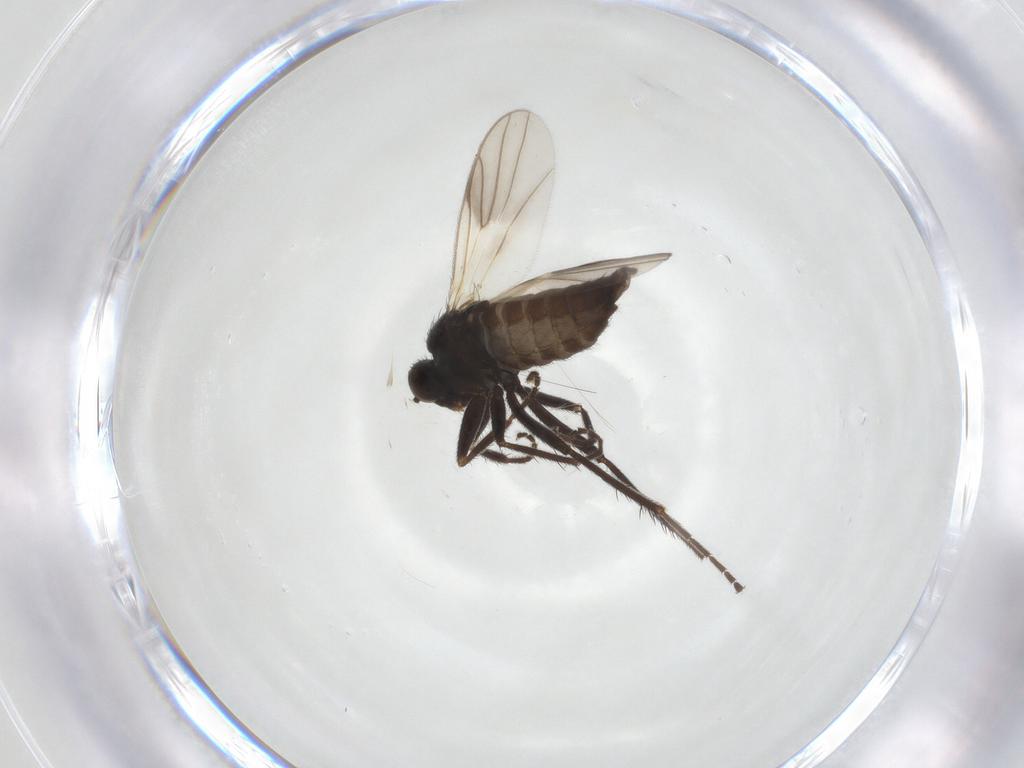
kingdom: Animalia
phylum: Arthropoda
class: Insecta
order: Diptera
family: Hybotidae
